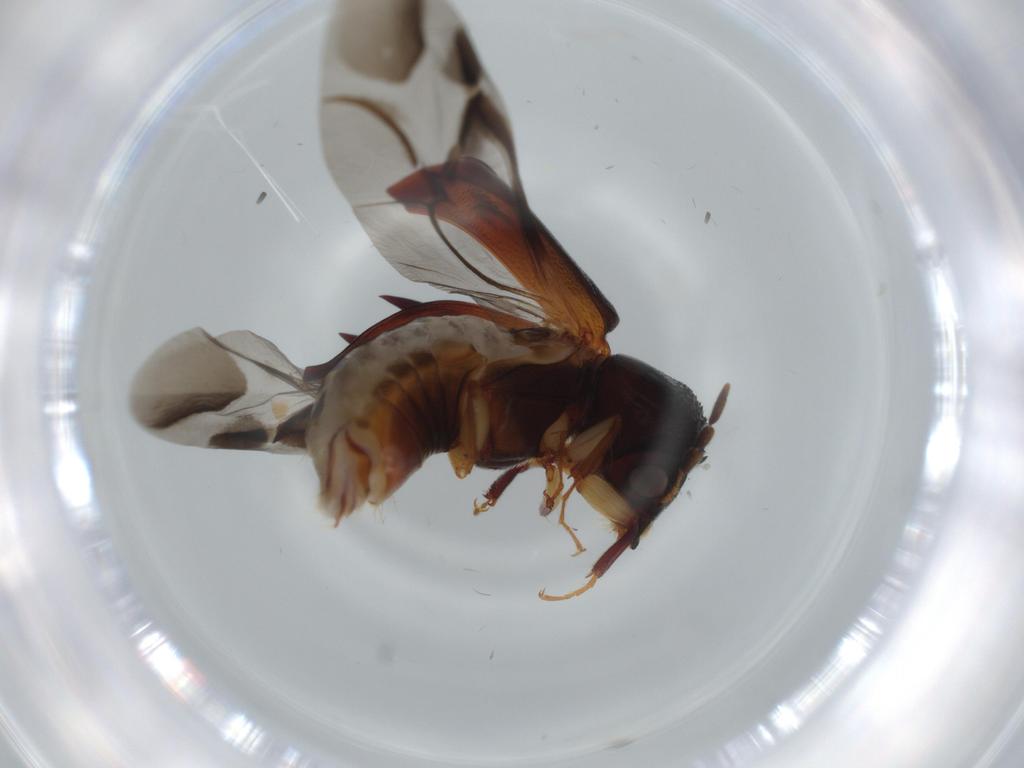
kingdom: Animalia
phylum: Arthropoda
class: Insecta
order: Coleoptera
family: Bostrichidae
